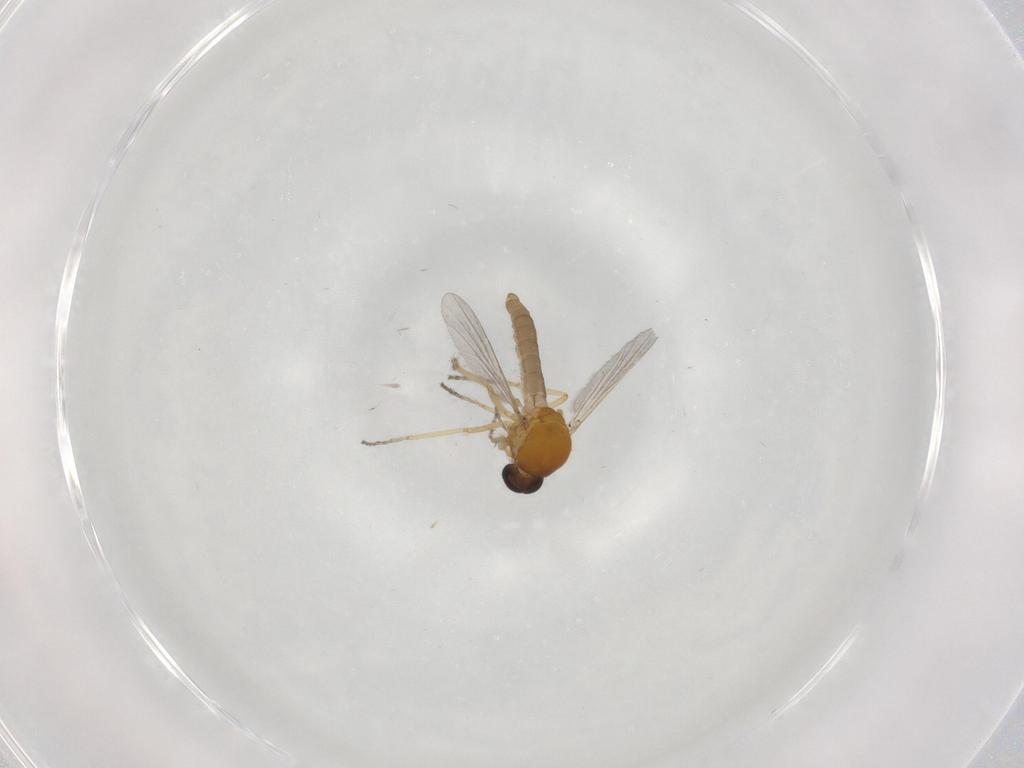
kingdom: Animalia
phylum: Arthropoda
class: Insecta
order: Diptera
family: Ceratopogonidae
